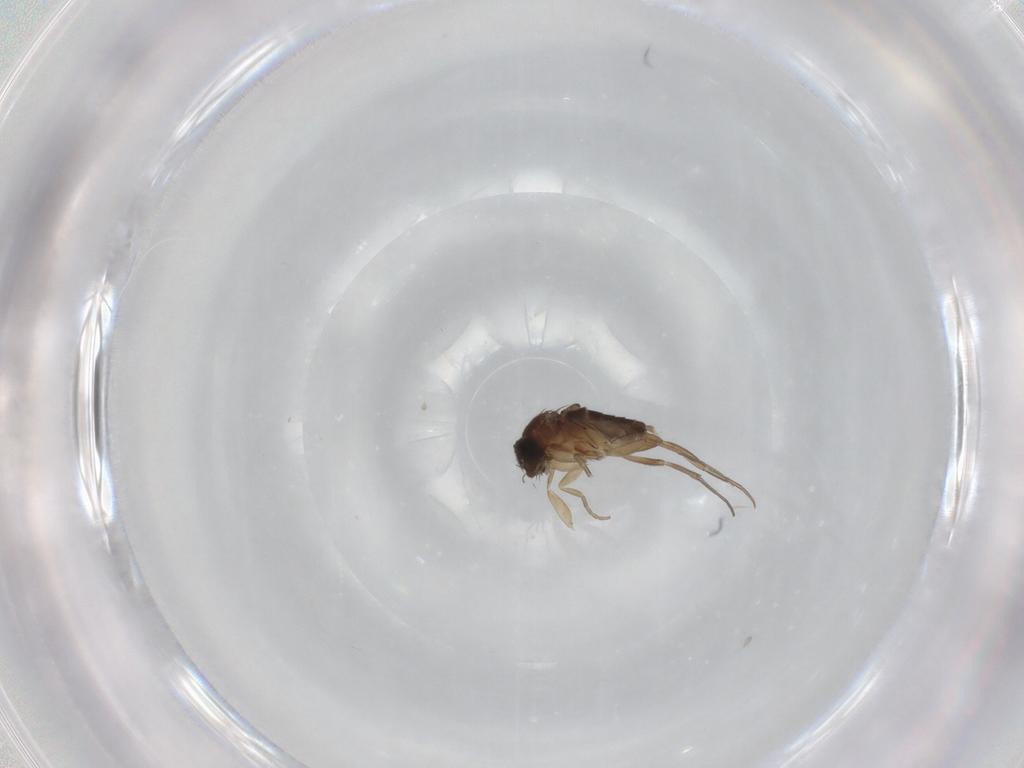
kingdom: Animalia
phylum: Arthropoda
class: Insecta
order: Diptera
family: Phoridae
